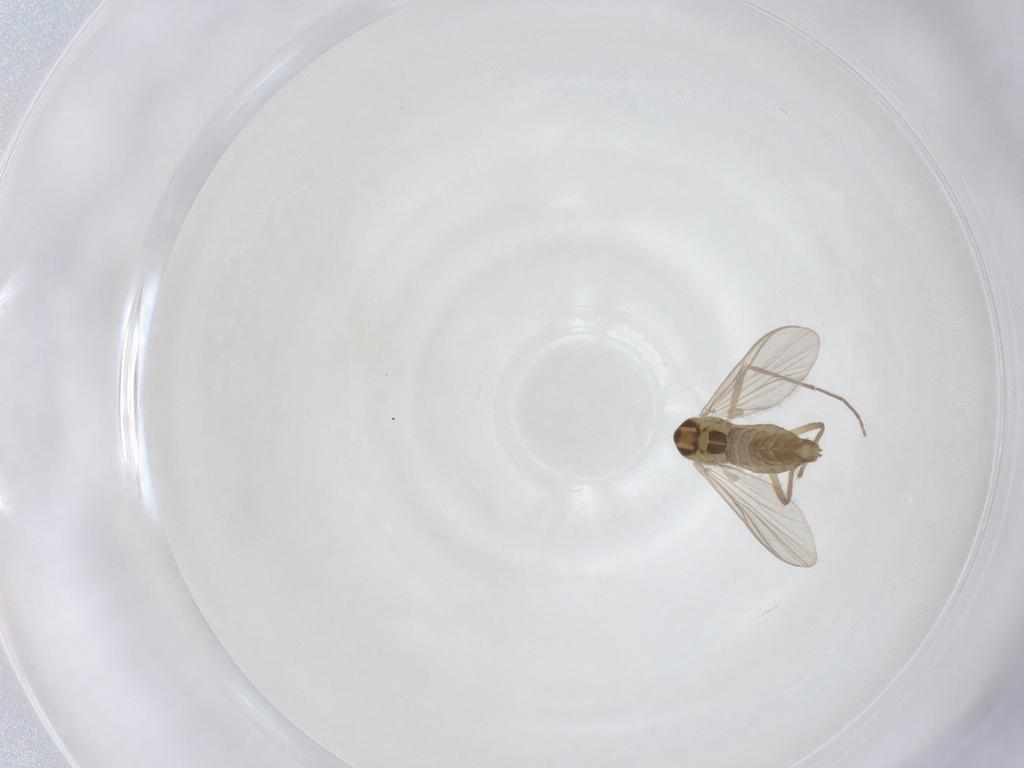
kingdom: Animalia
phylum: Arthropoda
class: Insecta
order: Diptera
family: Chironomidae
